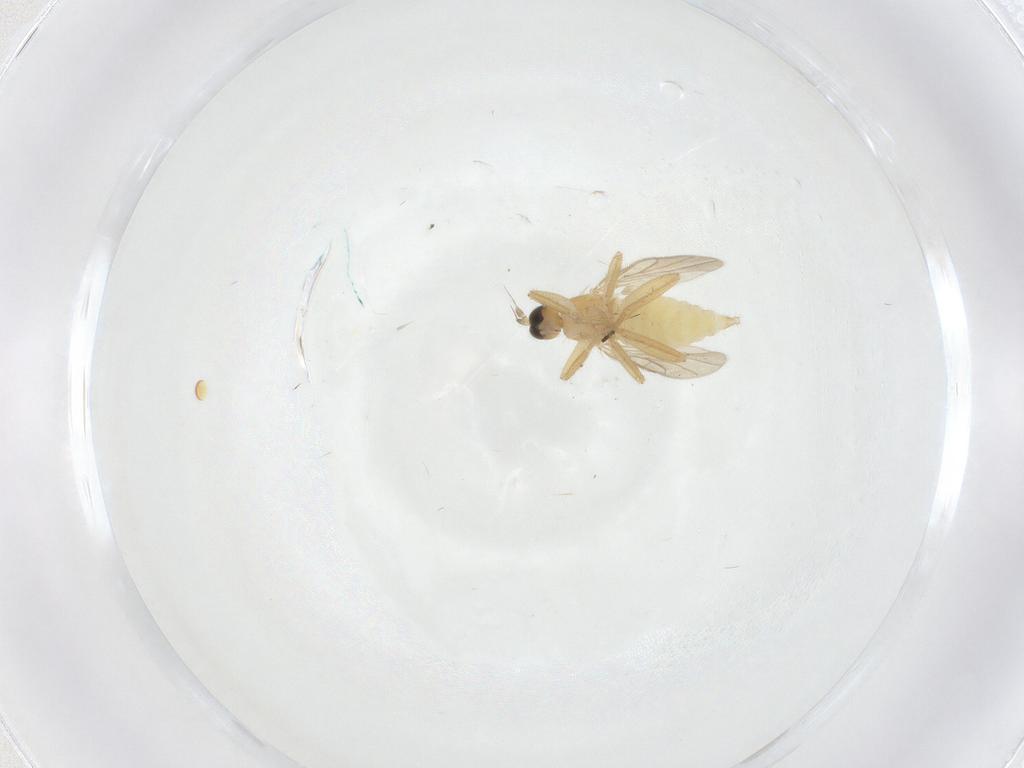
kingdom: Animalia
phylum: Arthropoda
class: Insecta
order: Diptera
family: Hybotidae
